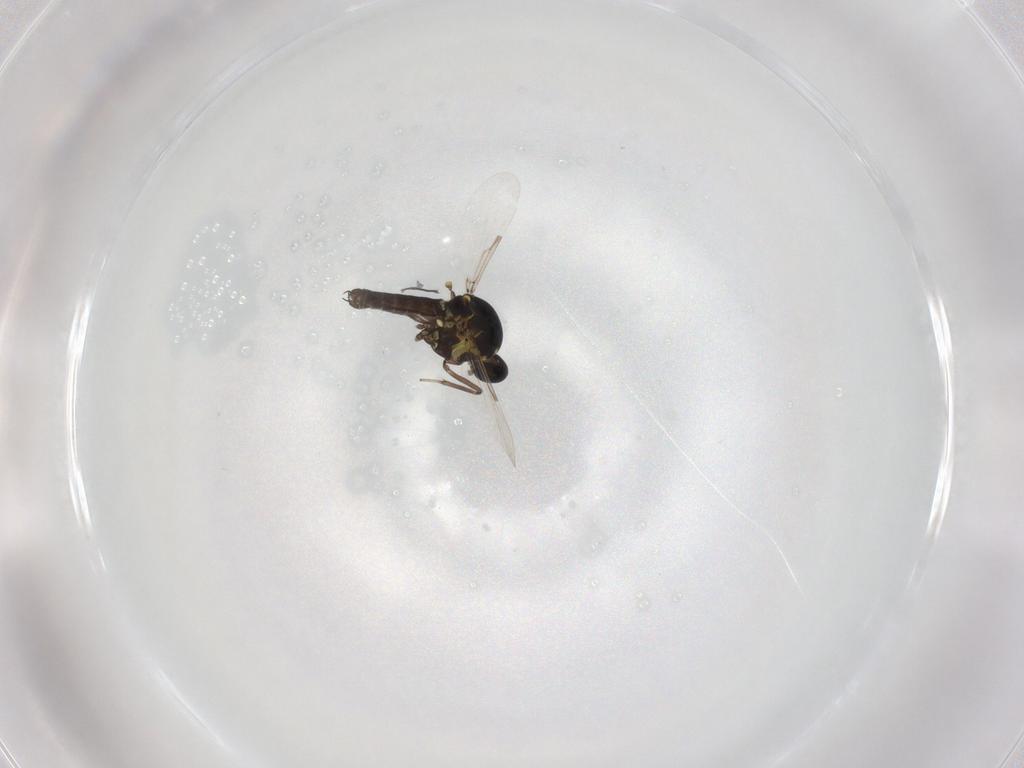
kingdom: Animalia
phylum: Arthropoda
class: Insecta
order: Diptera
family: Ceratopogonidae
